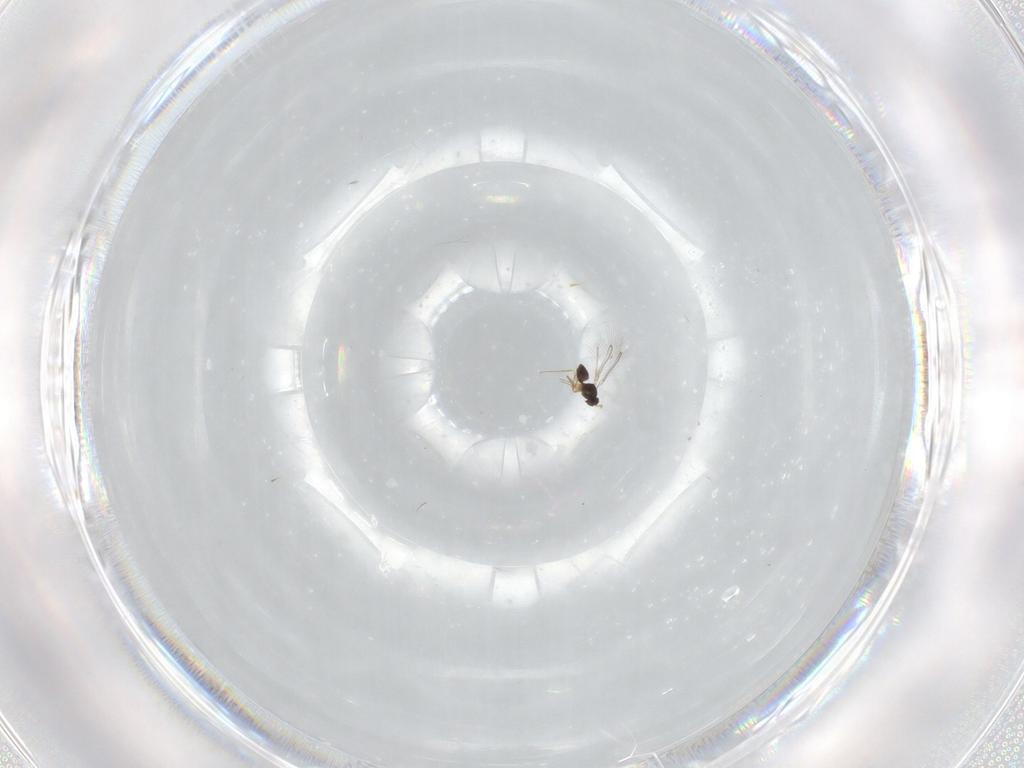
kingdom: Animalia
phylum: Arthropoda
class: Insecta
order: Hymenoptera
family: Mymaridae
